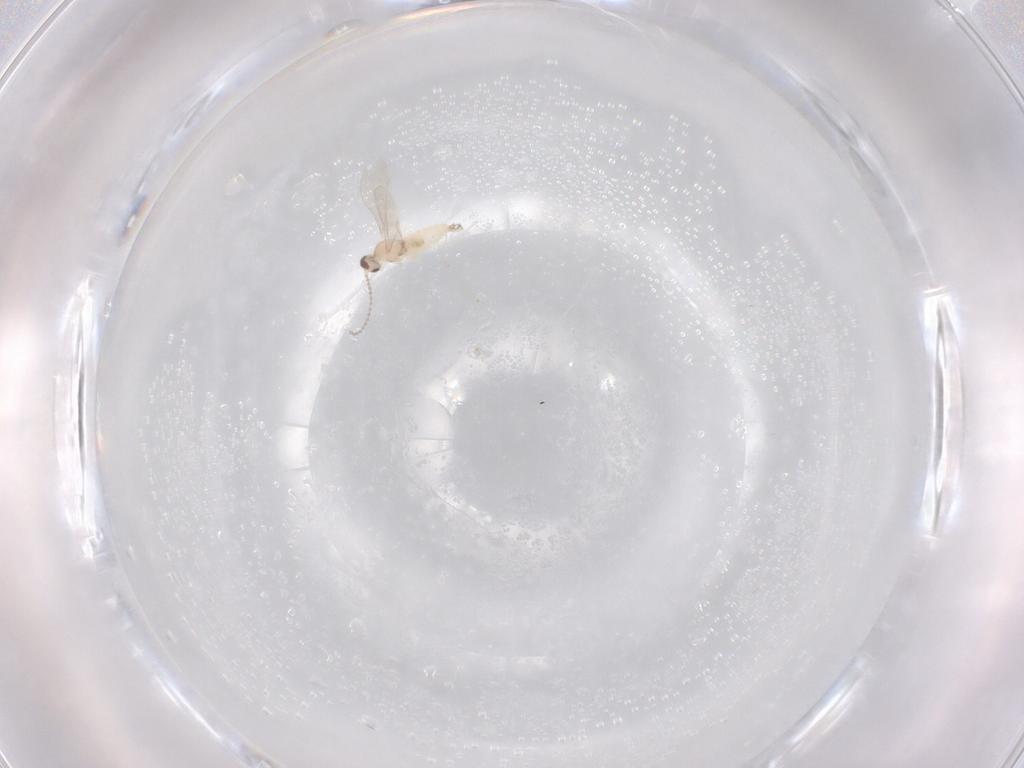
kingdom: Animalia
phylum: Arthropoda
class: Insecta
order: Diptera
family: Cecidomyiidae
